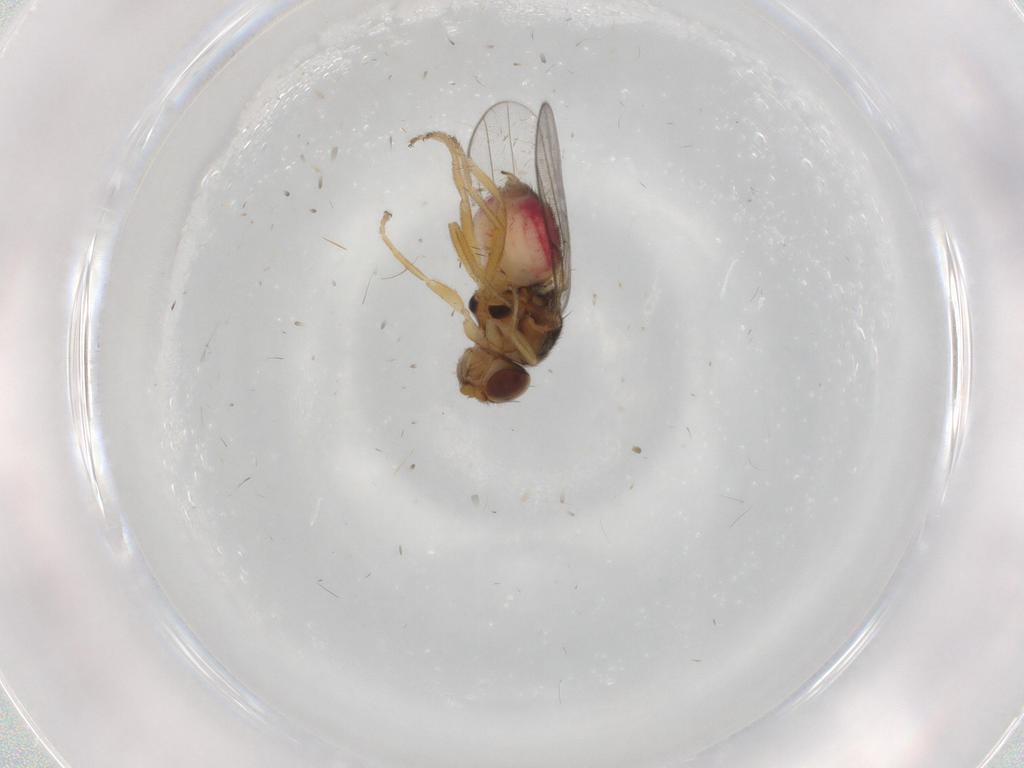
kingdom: Animalia
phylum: Arthropoda
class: Insecta
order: Diptera
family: Chloropidae
